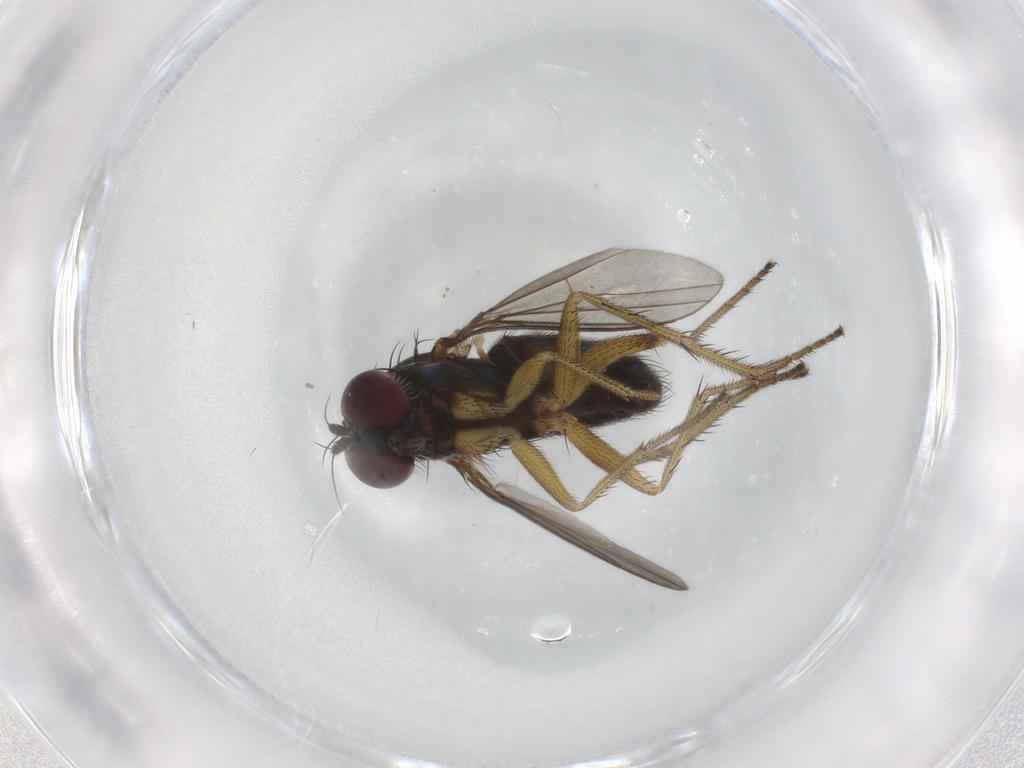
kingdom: Animalia
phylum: Arthropoda
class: Insecta
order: Diptera
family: Dolichopodidae
